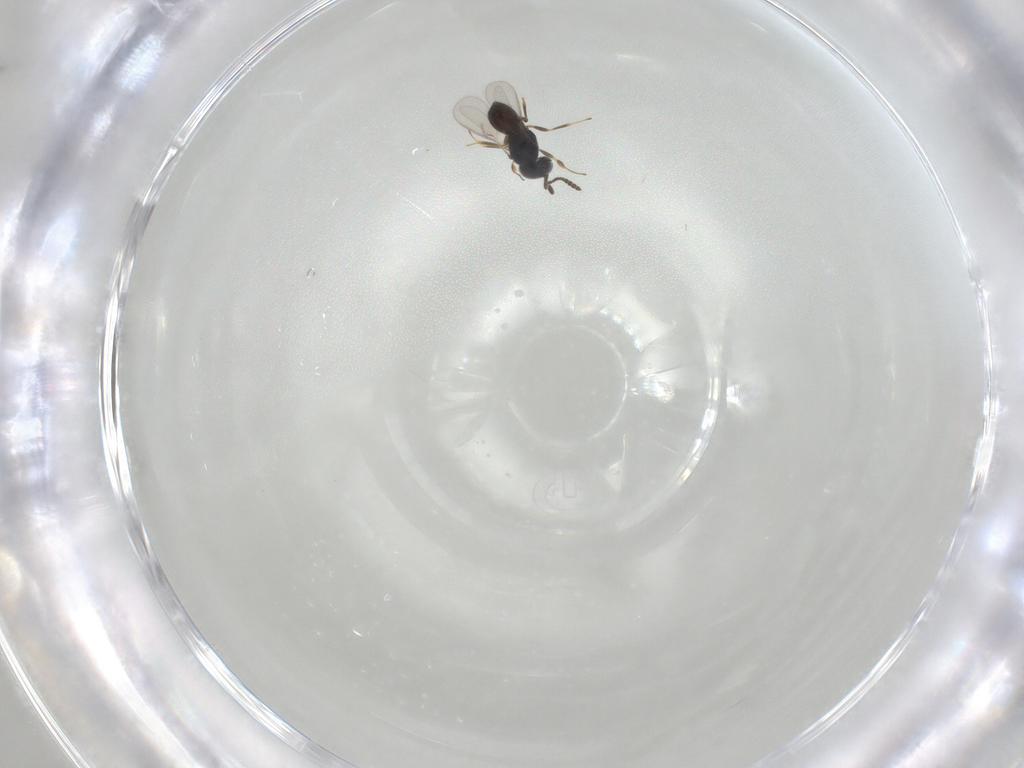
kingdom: Animalia
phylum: Arthropoda
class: Insecta
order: Hymenoptera
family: Scelionidae
